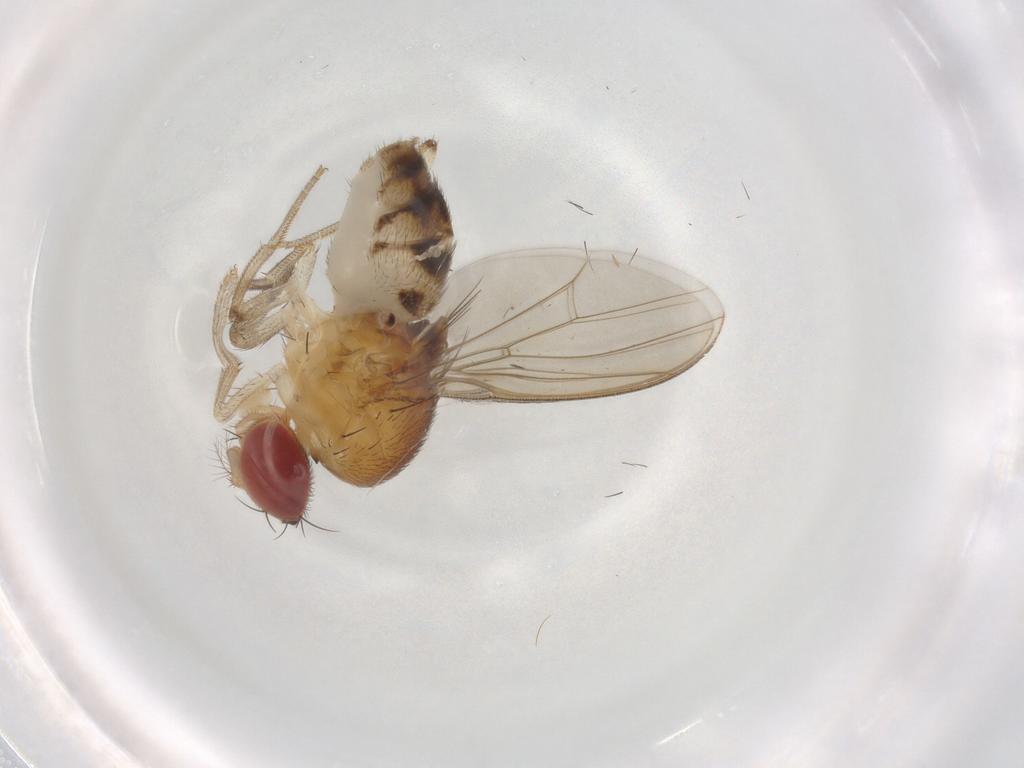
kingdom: Animalia
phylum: Arthropoda
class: Insecta
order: Diptera
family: Drosophilidae
